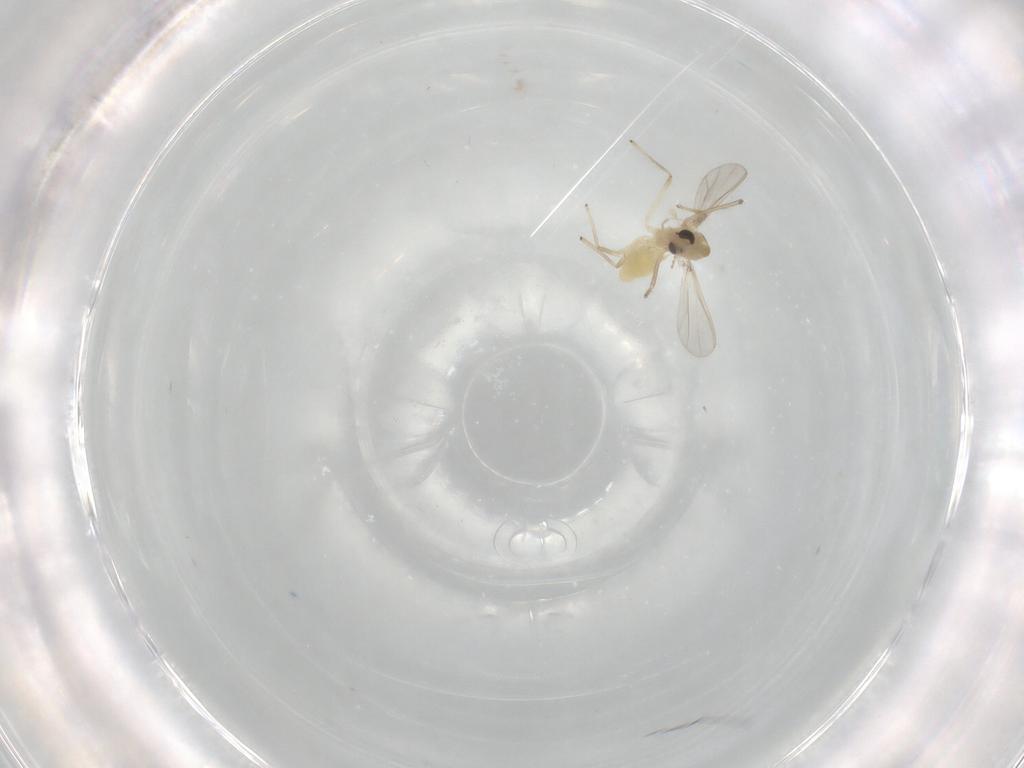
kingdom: Animalia
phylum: Arthropoda
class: Insecta
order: Diptera
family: Chironomidae
